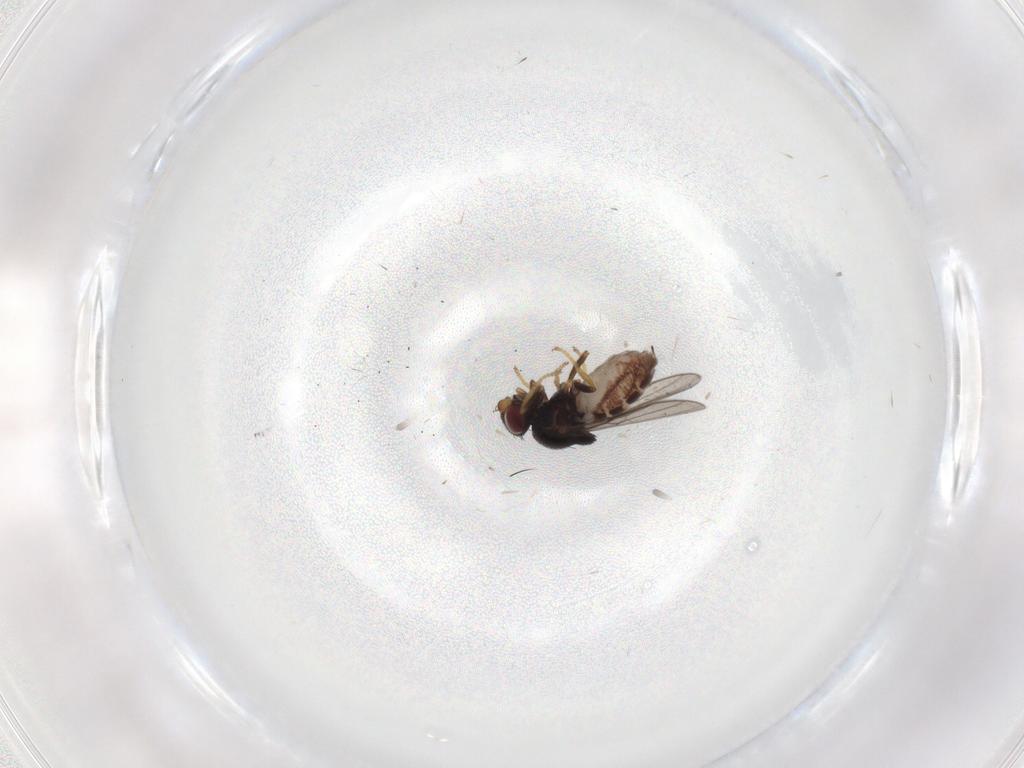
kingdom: Animalia
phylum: Arthropoda
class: Insecta
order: Diptera
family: Chloropidae
